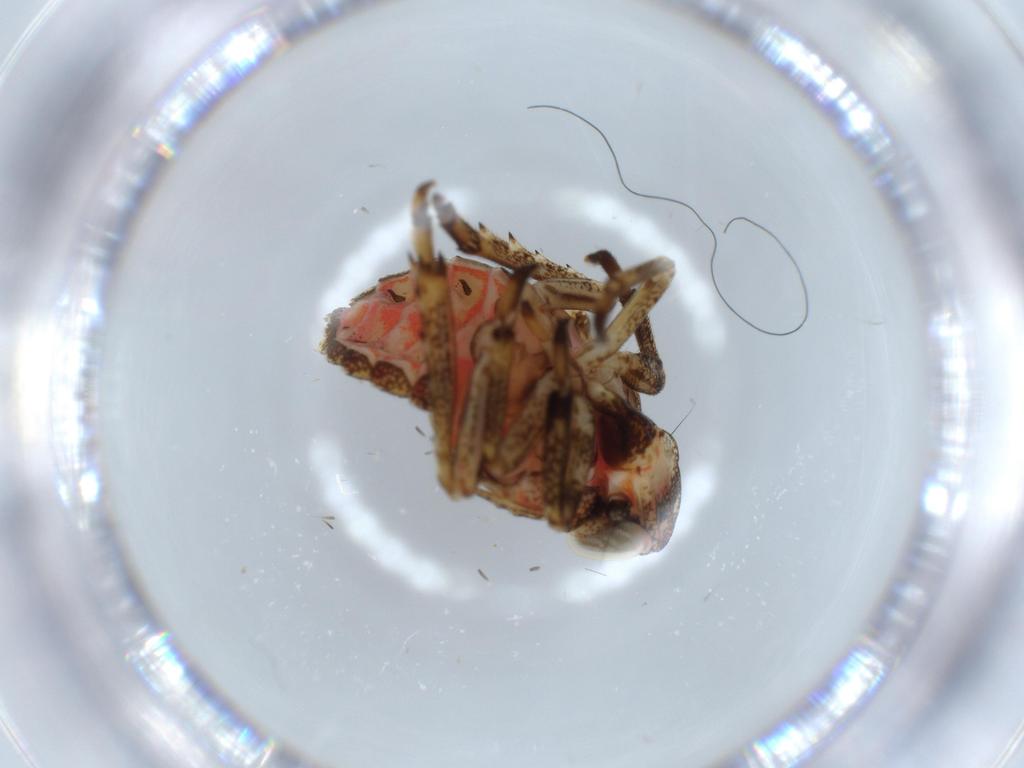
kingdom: Animalia
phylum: Arthropoda
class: Insecta
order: Hemiptera
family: Issidae
